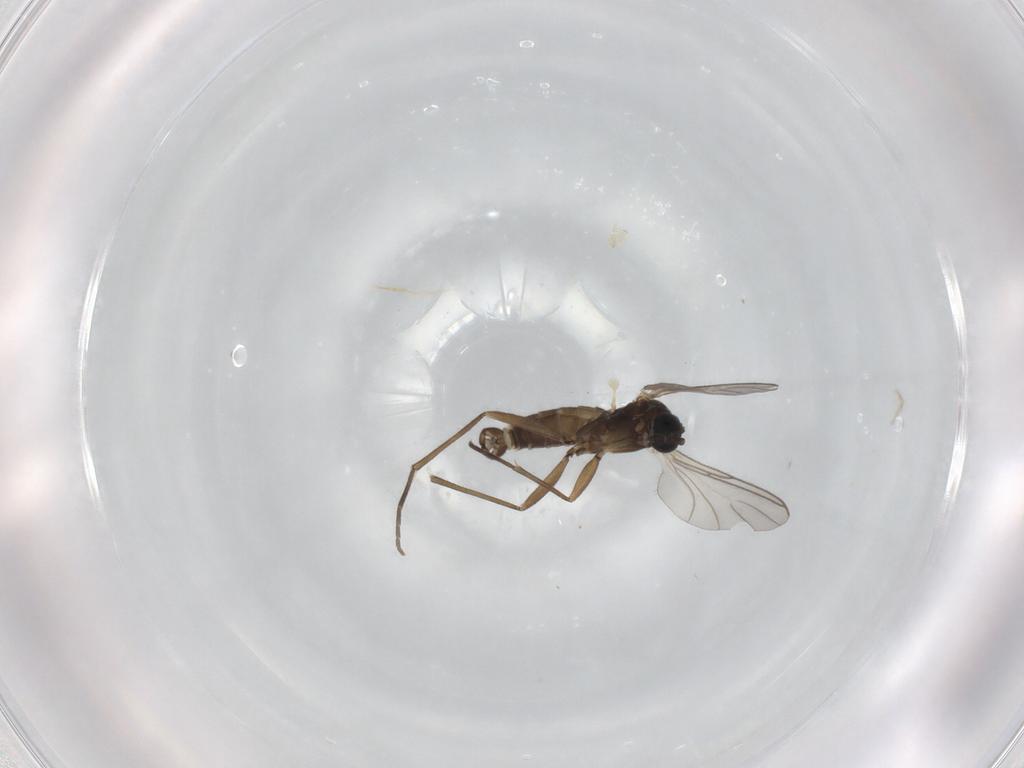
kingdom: Animalia
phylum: Arthropoda
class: Insecta
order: Diptera
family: Sciaridae
